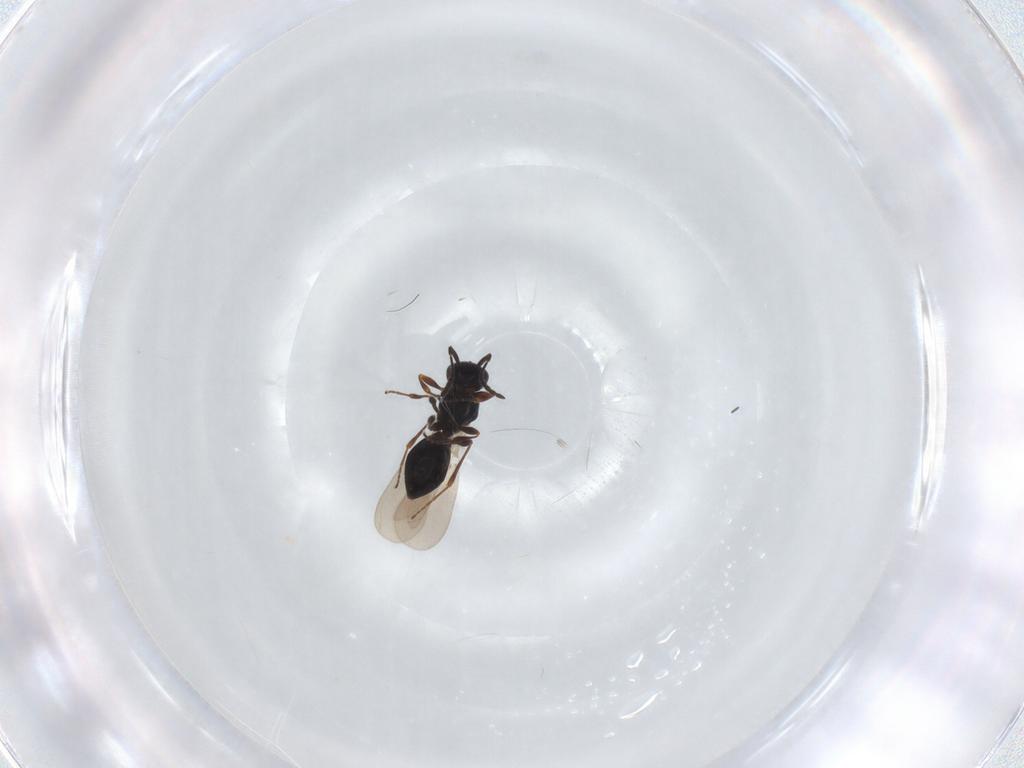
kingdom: Animalia
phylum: Arthropoda
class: Insecta
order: Hymenoptera
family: Platygastridae
